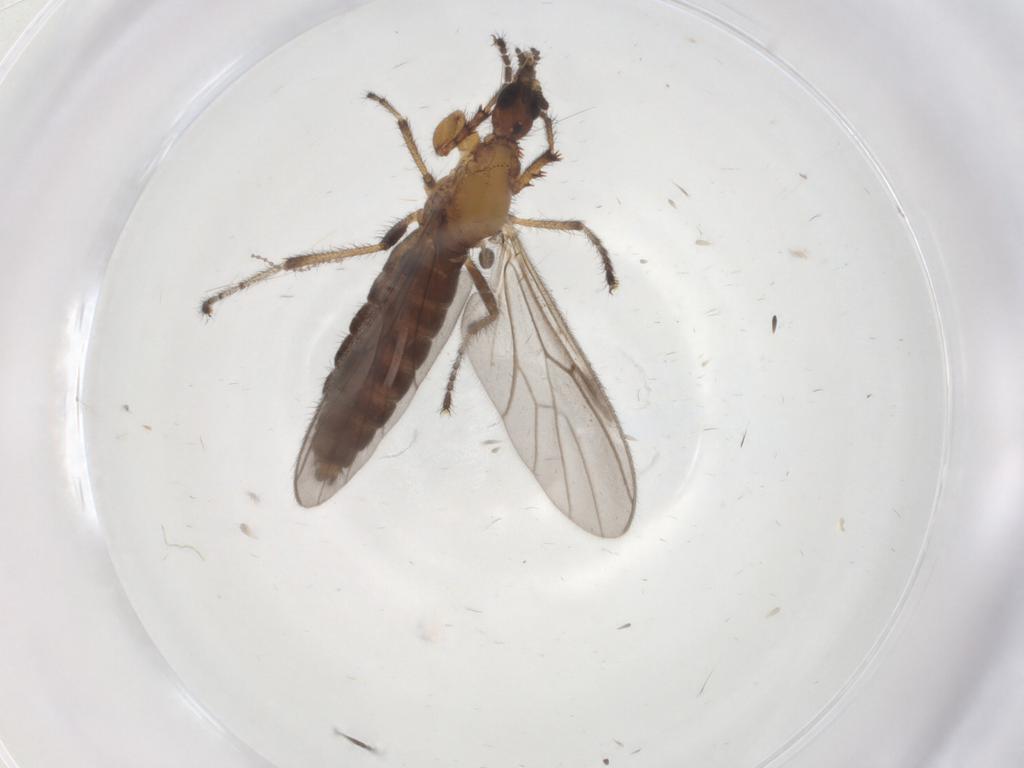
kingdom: Animalia
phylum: Arthropoda
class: Insecta
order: Diptera
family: Bibionidae
